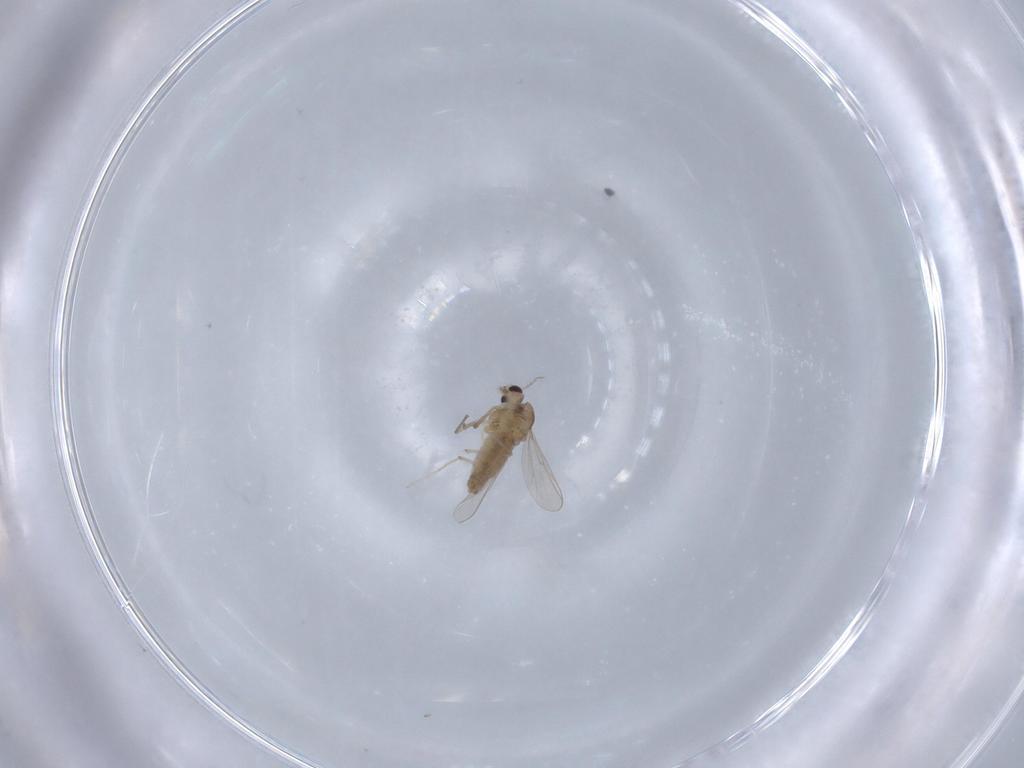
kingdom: Animalia
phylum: Arthropoda
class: Insecta
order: Diptera
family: Chironomidae
